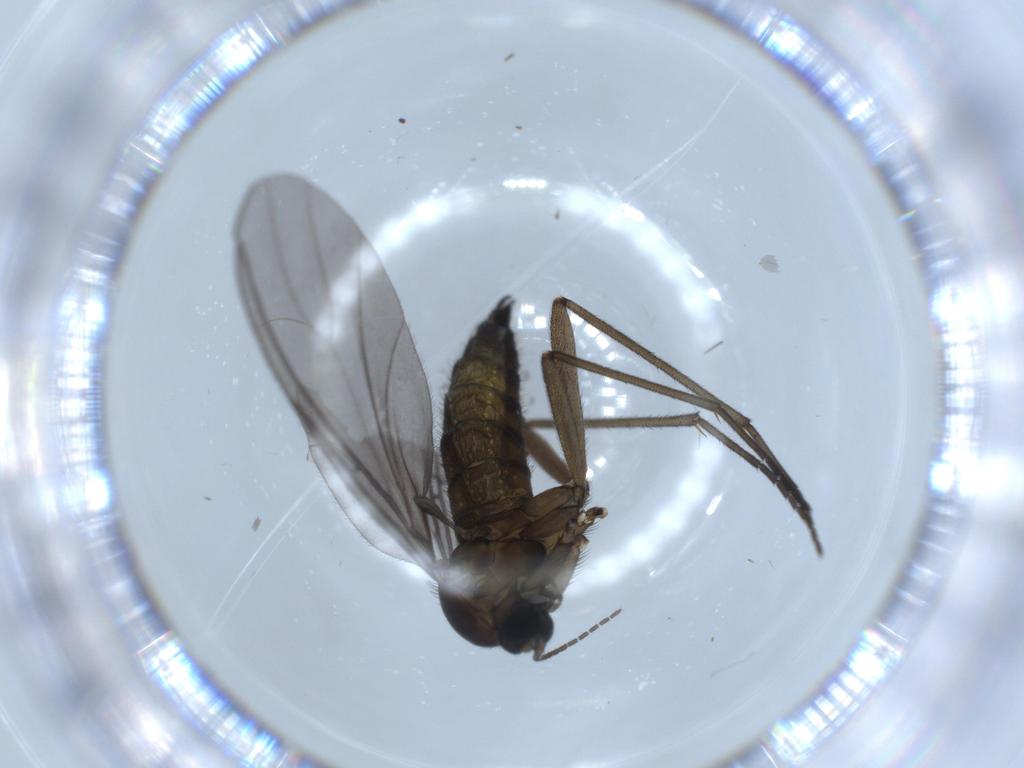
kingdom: Animalia
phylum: Arthropoda
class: Insecta
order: Diptera
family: Sciaridae
